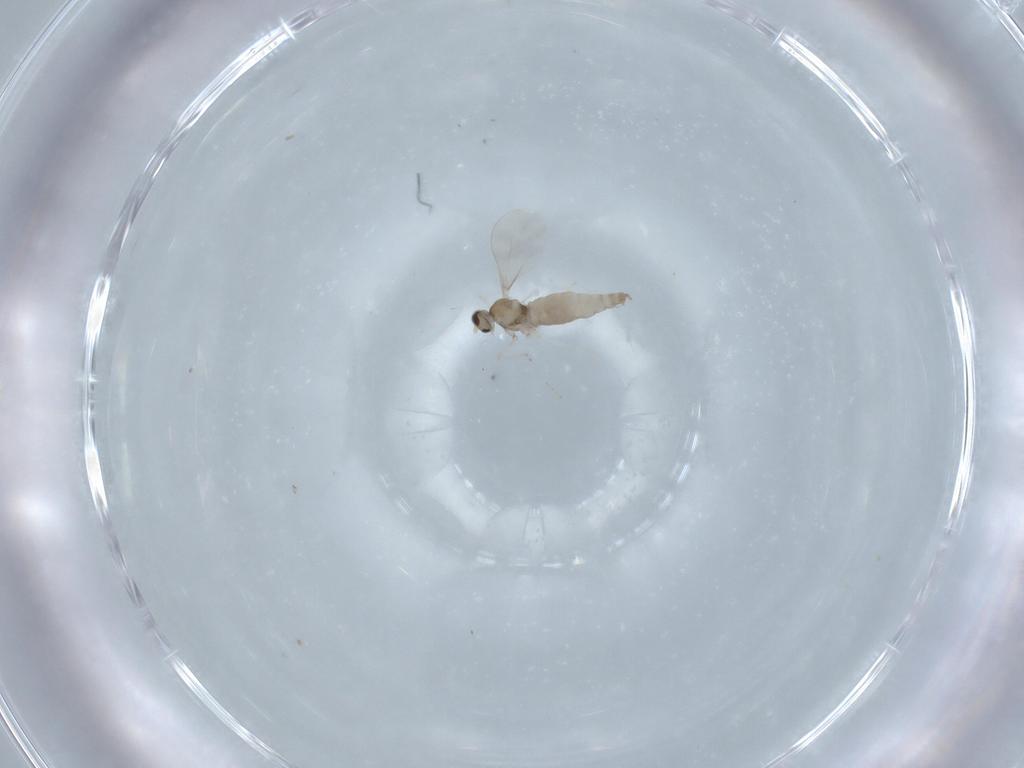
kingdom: Animalia
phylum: Arthropoda
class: Insecta
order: Diptera
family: Cecidomyiidae
